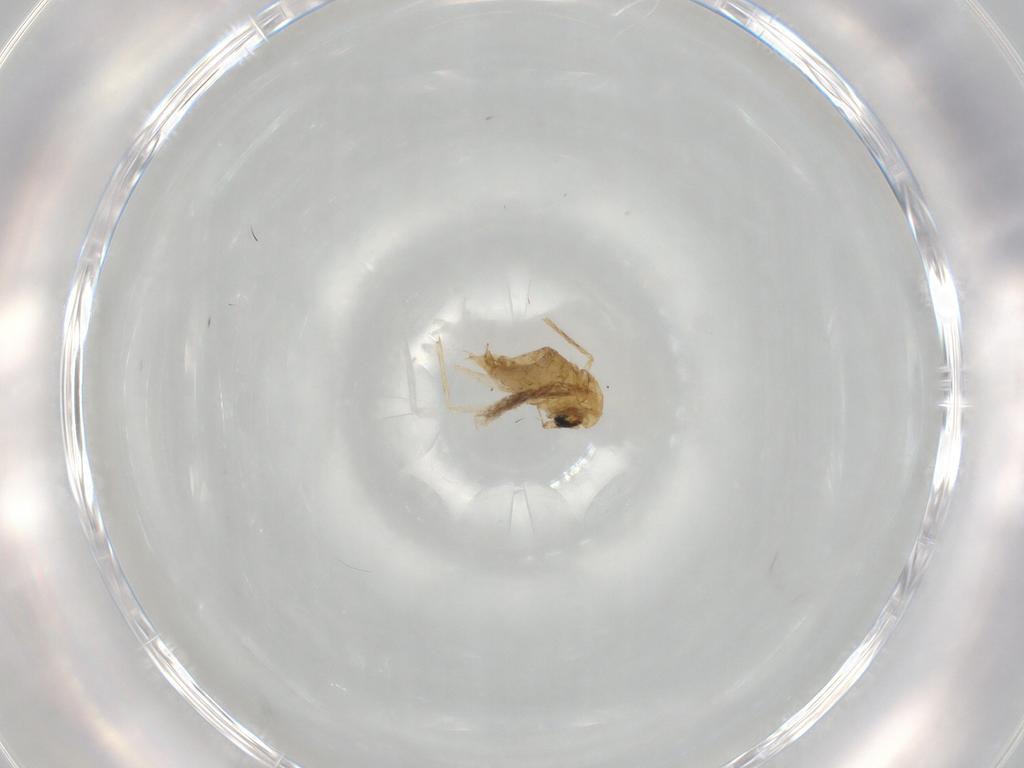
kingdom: Animalia
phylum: Arthropoda
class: Insecta
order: Diptera
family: Chironomidae
